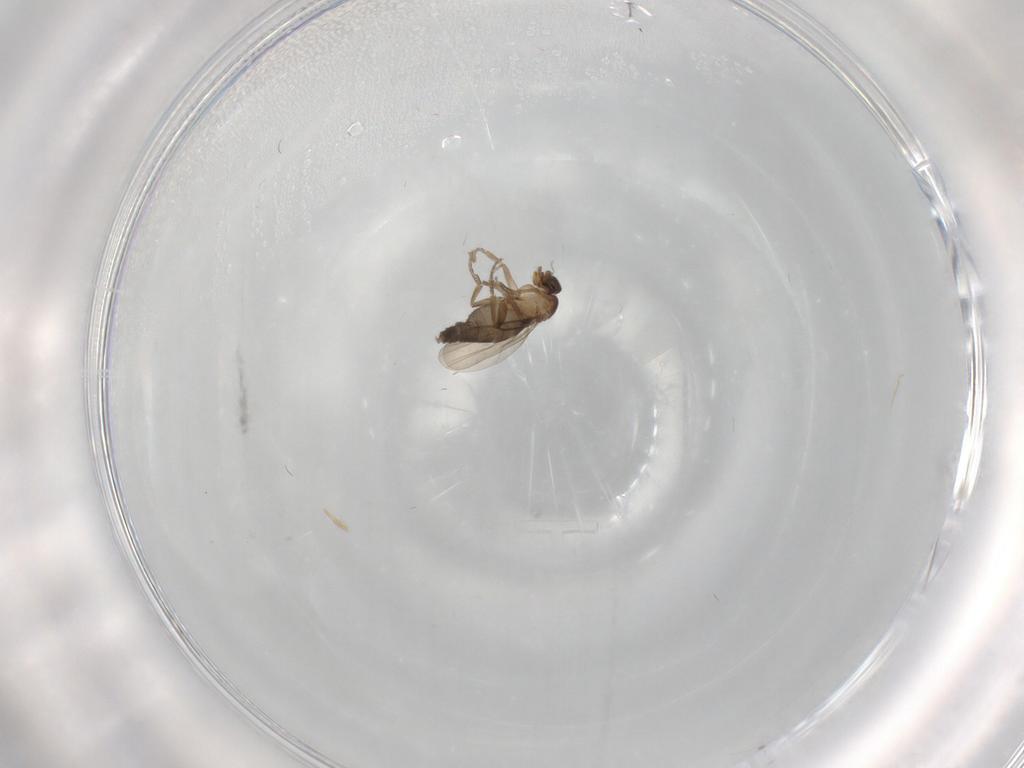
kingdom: Animalia
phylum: Arthropoda
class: Insecta
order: Diptera
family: Phoridae
